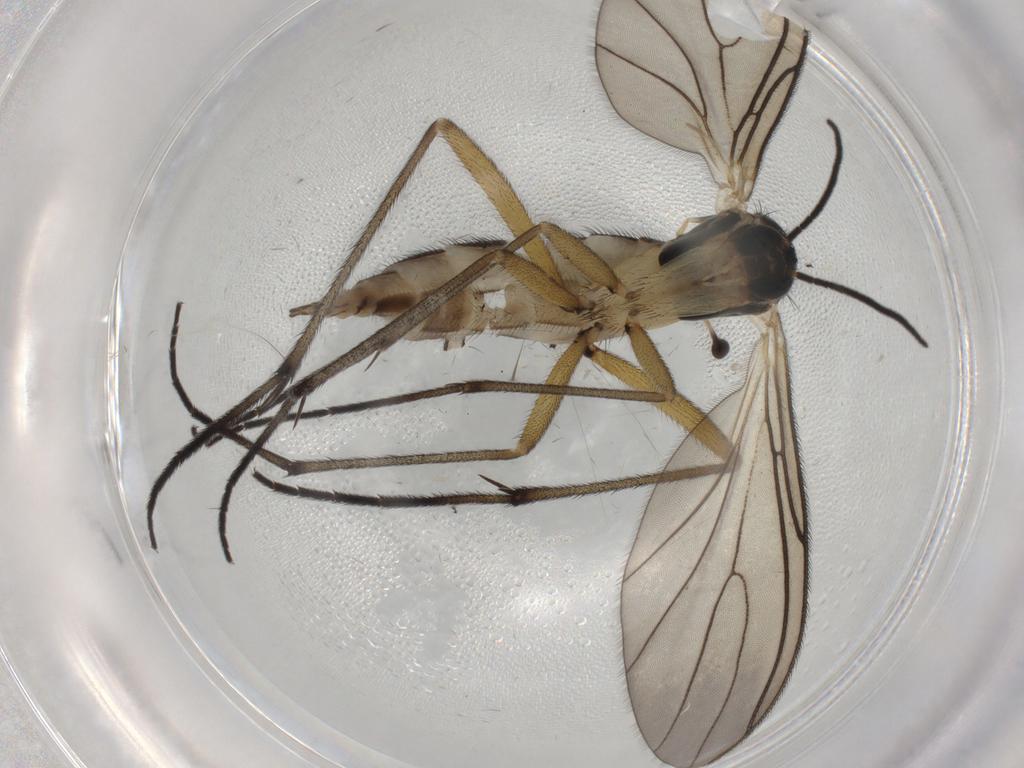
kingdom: Animalia
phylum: Arthropoda
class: Insecta
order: Diptera
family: Sciaridae
